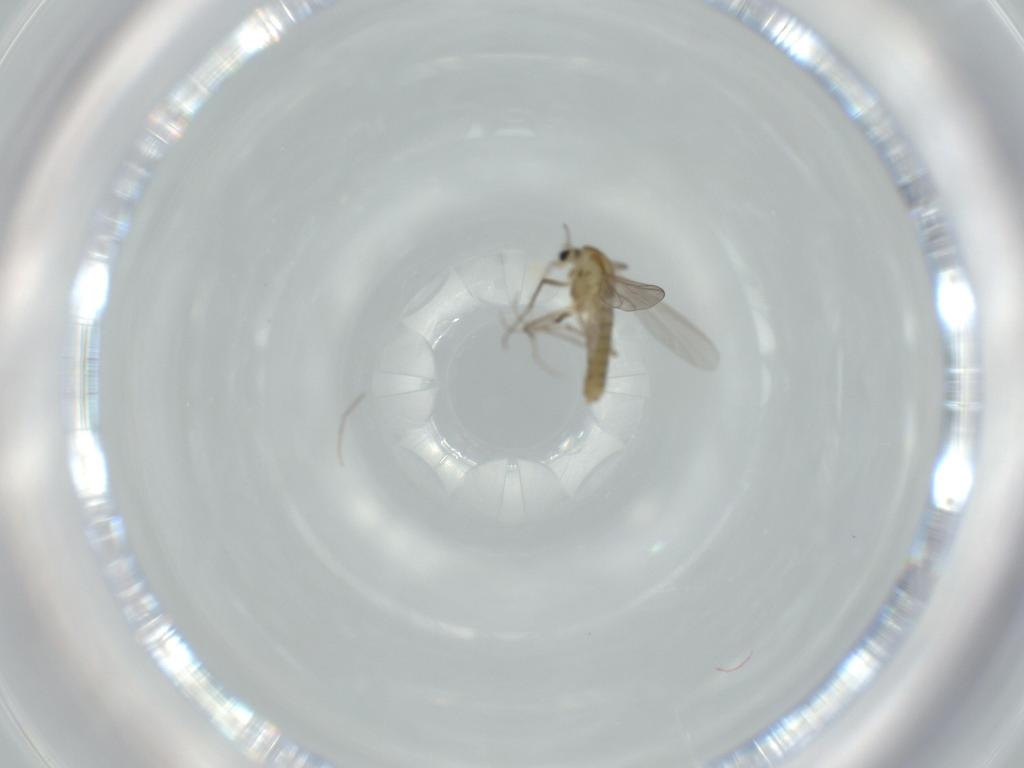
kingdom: Animalia
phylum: Arthropoda
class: Insecta
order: Diptera
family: Chironomidae
